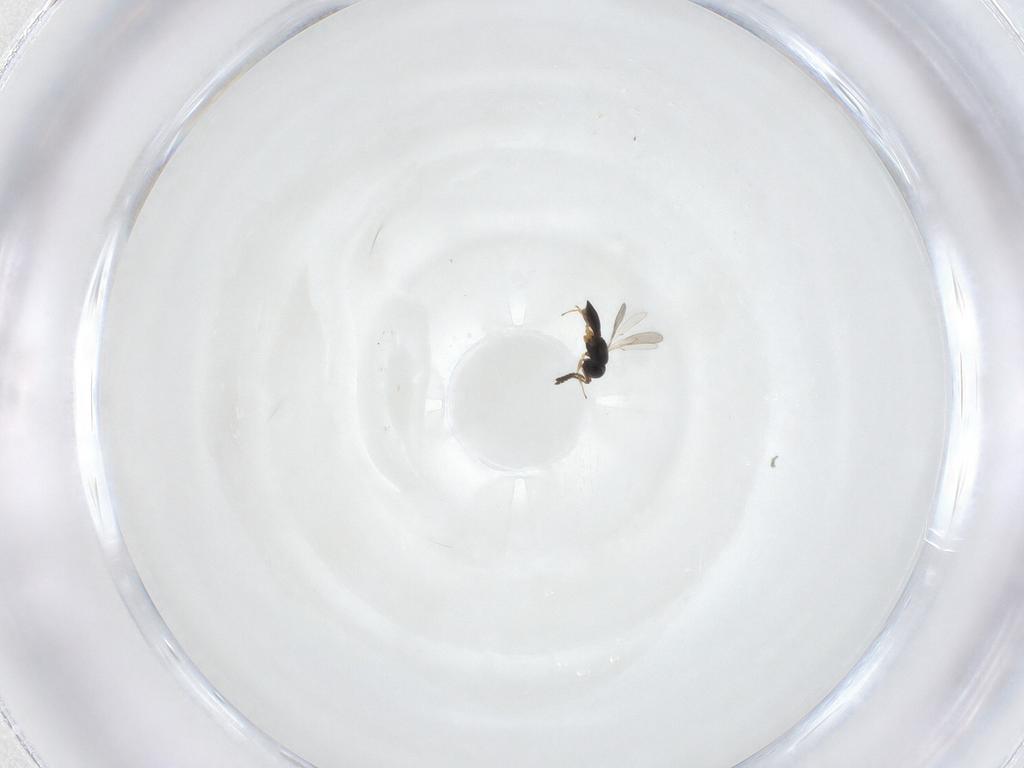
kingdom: Animalia
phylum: Arthropoda
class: Insecta
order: Hymenoptera
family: Scelionidae
